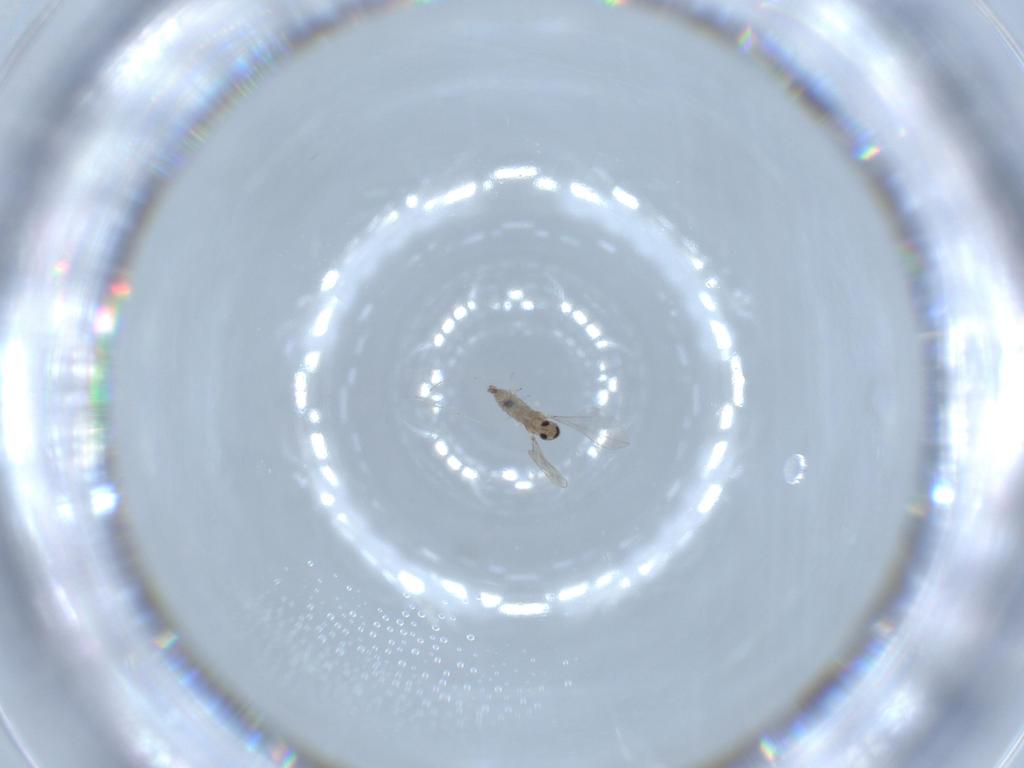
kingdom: Animalia
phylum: Arthropoda
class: Insecta
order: Diptera
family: Cecidomyiidae
